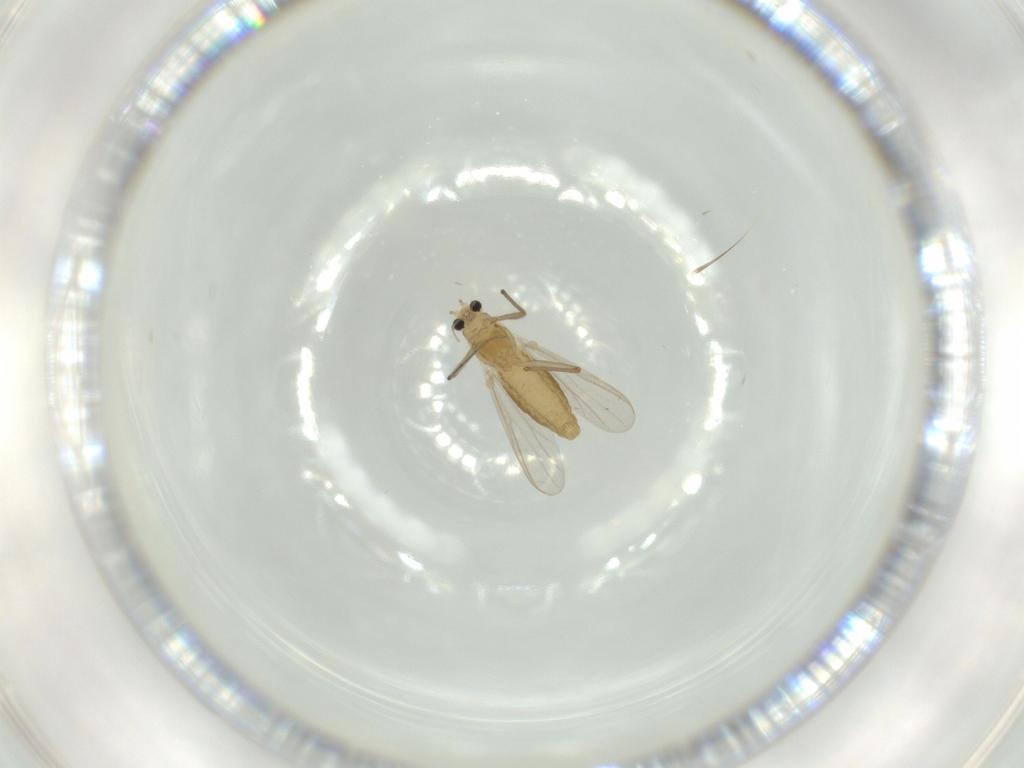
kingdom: Animalia
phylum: Arthropoda
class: Insecta
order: Diptera
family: Chironomidae
